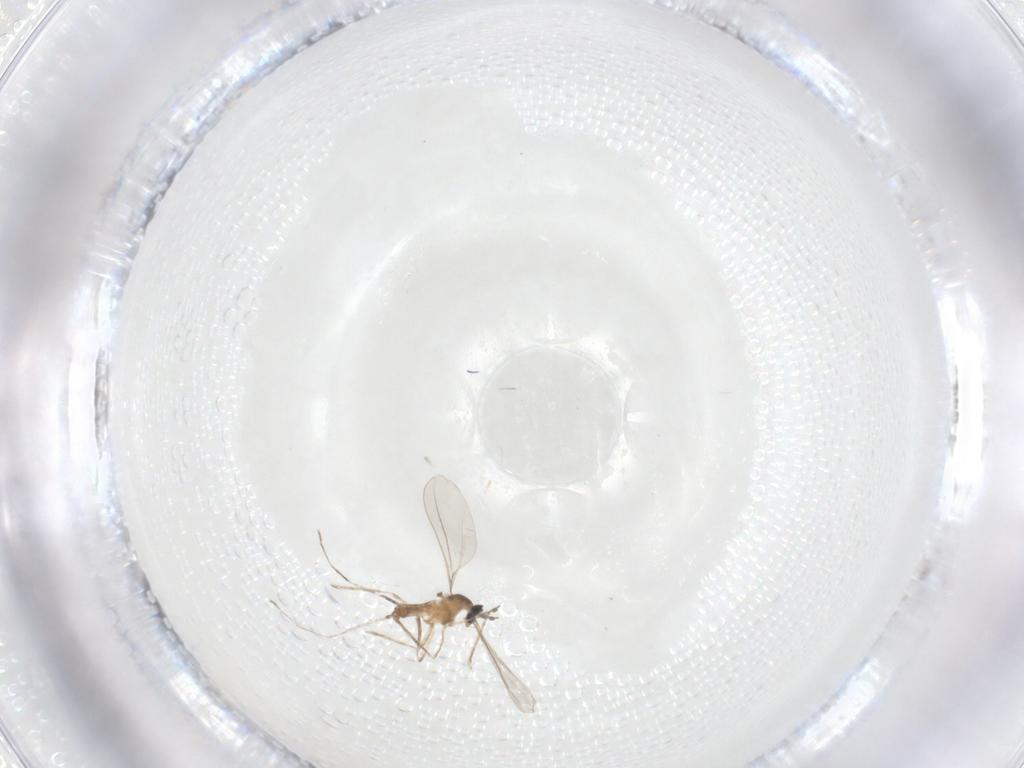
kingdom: Animalia
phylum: Arthropoda
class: Insecta
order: Diptera
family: Cecidomyiidae
